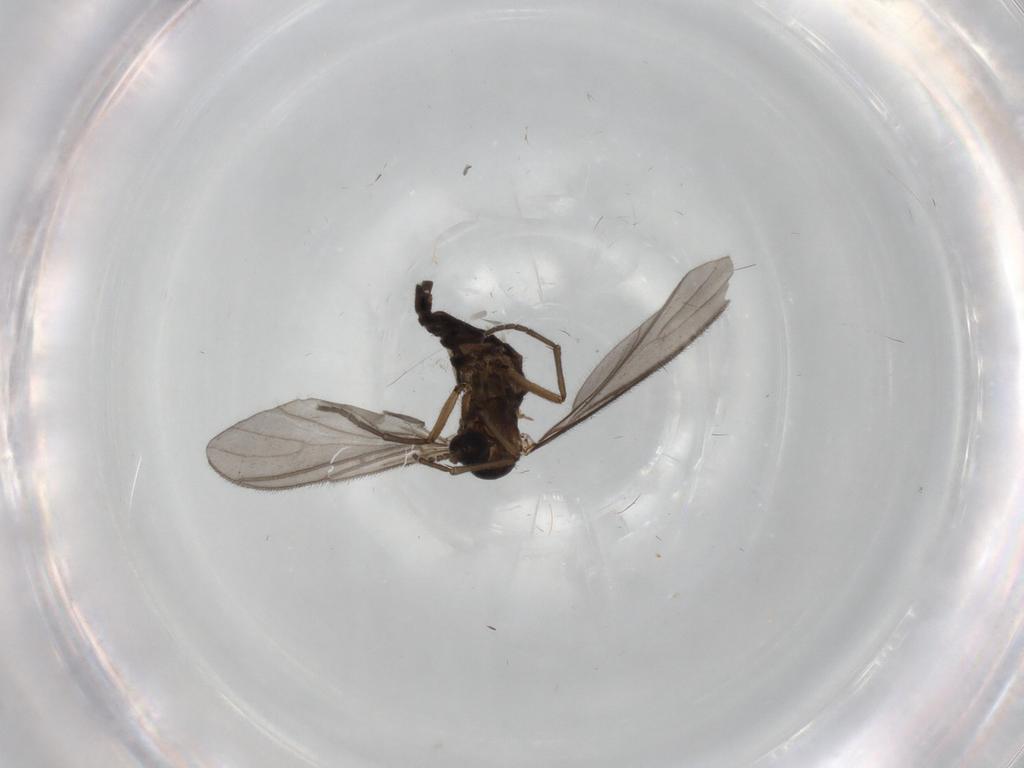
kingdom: Animalia
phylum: Arthropoda
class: Insecta
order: Diptera
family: Sciaridae
